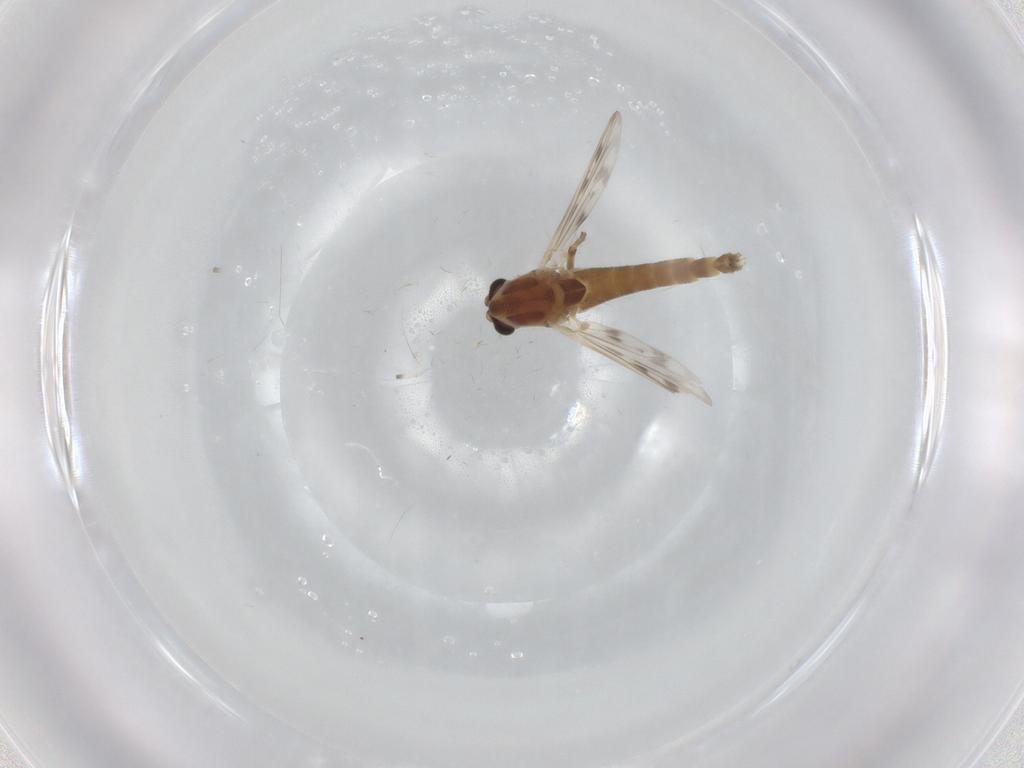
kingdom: Animalia
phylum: Arthropoda
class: Insecta
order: Diptera
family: Chironomidae
